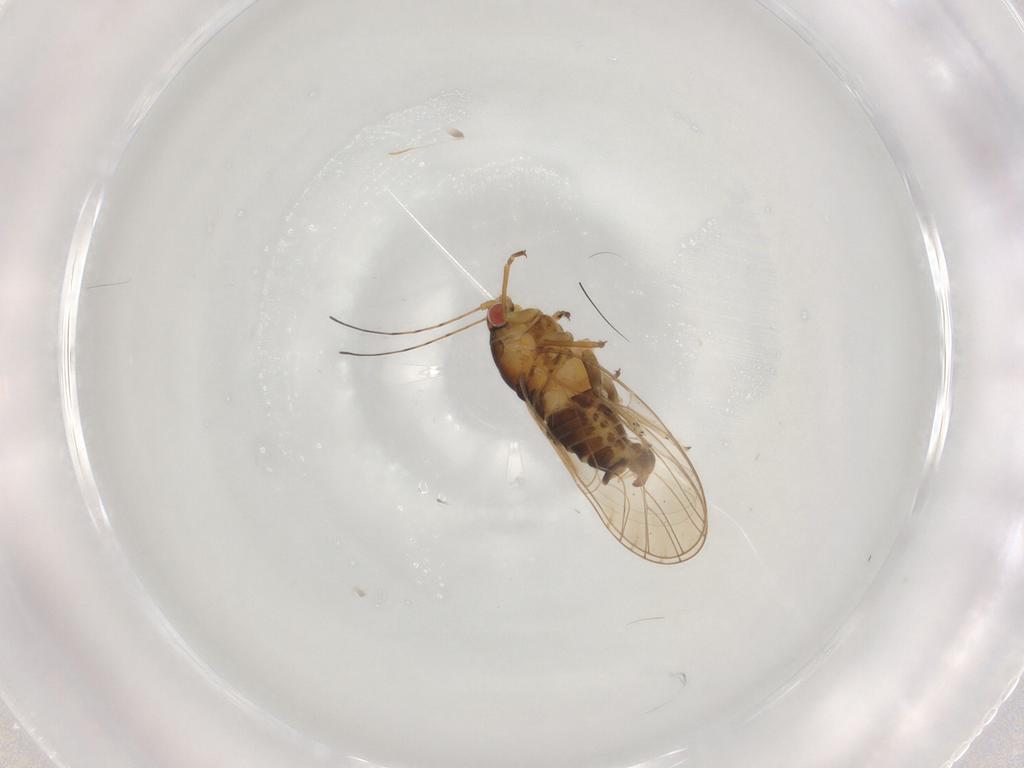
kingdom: Animalia
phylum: Arthropoda
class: Insecta
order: Hemiptera
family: Psyllidae
